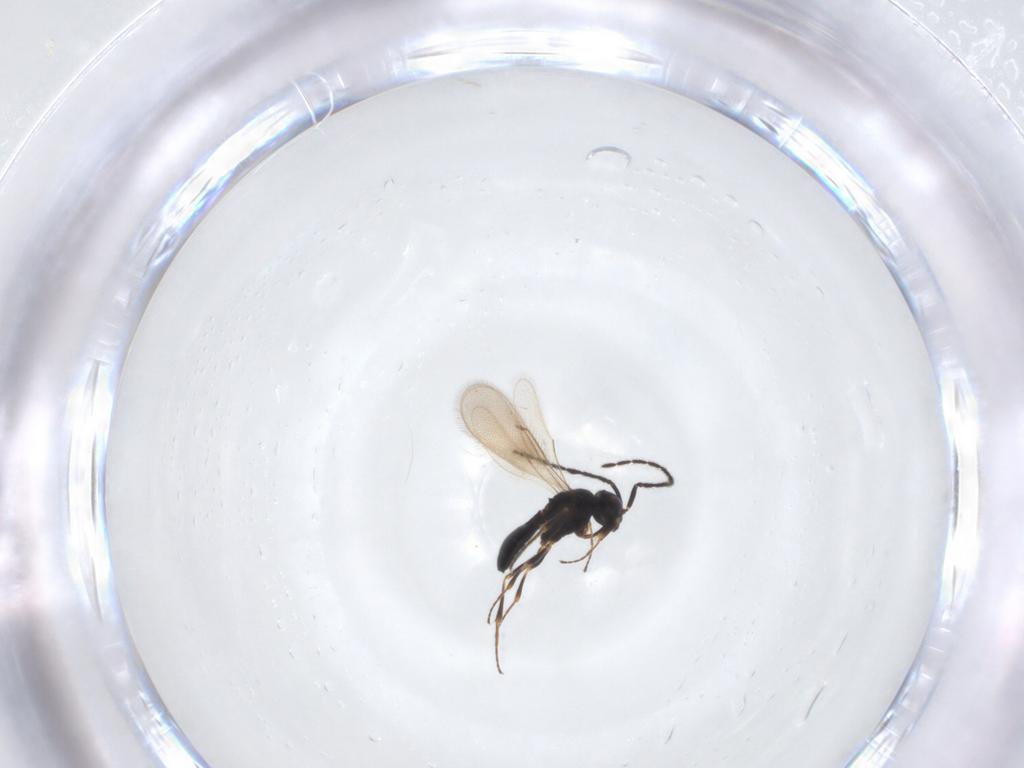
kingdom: Animalia
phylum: Arthropoda
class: Insecta
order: Hymenoptera
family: Scelionidae
